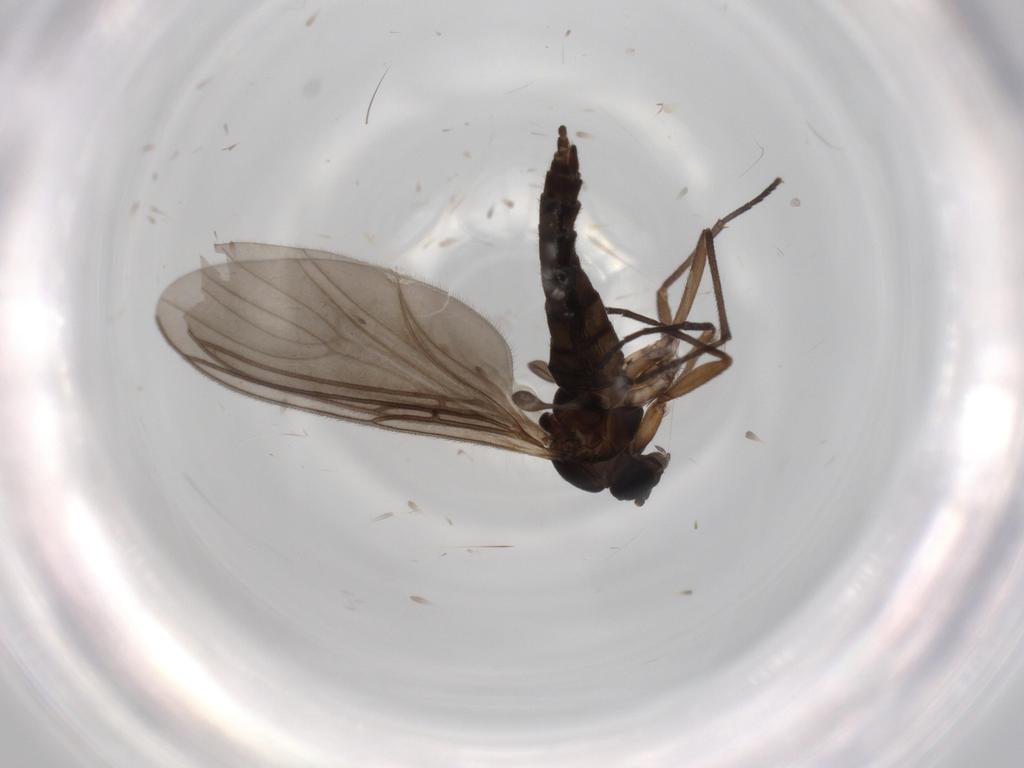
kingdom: Animalia
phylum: Arthropoda
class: Insecta
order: Diptera
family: Sciaridae
